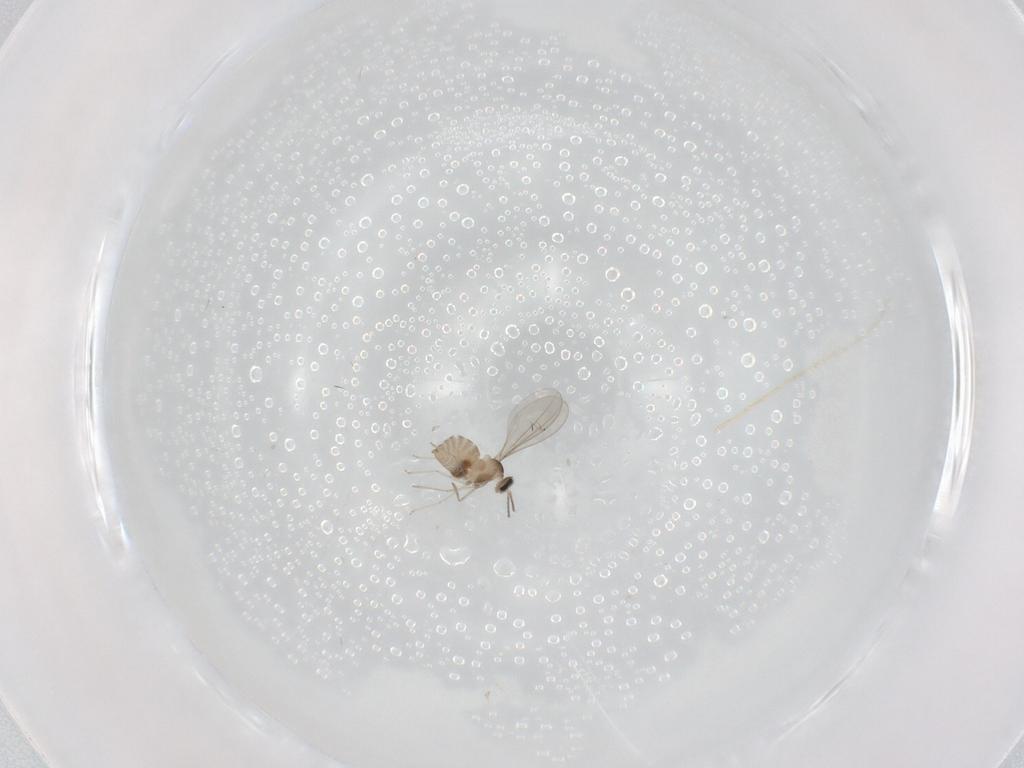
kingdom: Animalia
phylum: Arthropoda
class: Insecta
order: Diptera
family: Cecidomyiidae
